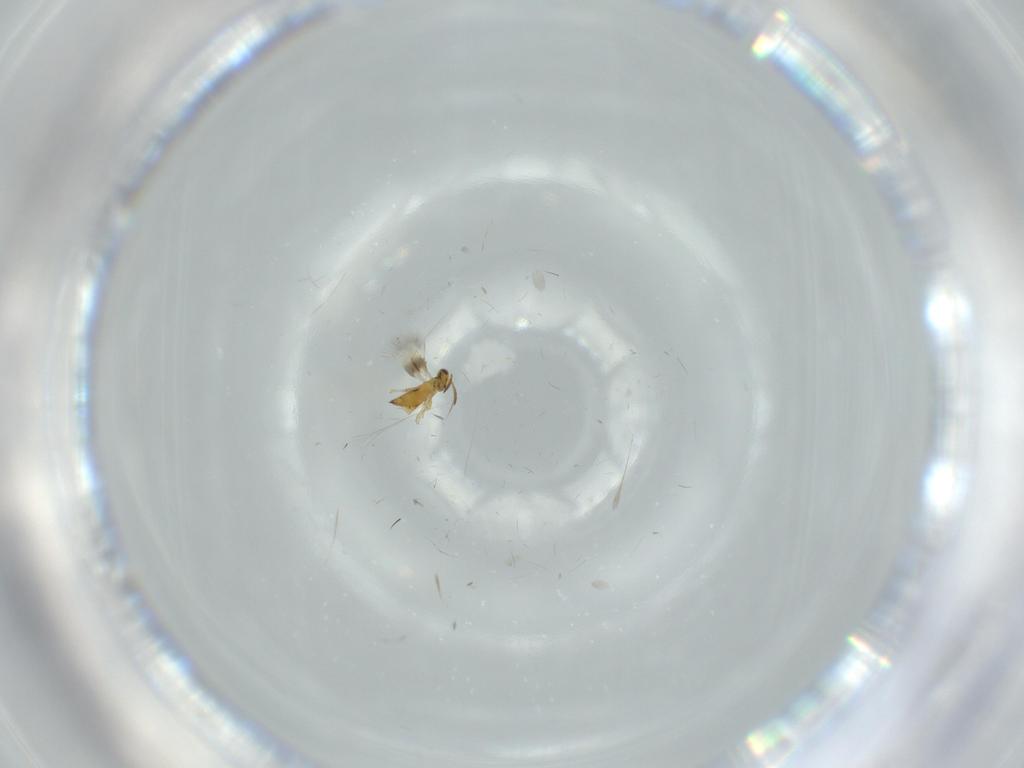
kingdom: Animalia
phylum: Arthropoda
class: Insecta
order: Hymenoptera
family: Signiphoridae
